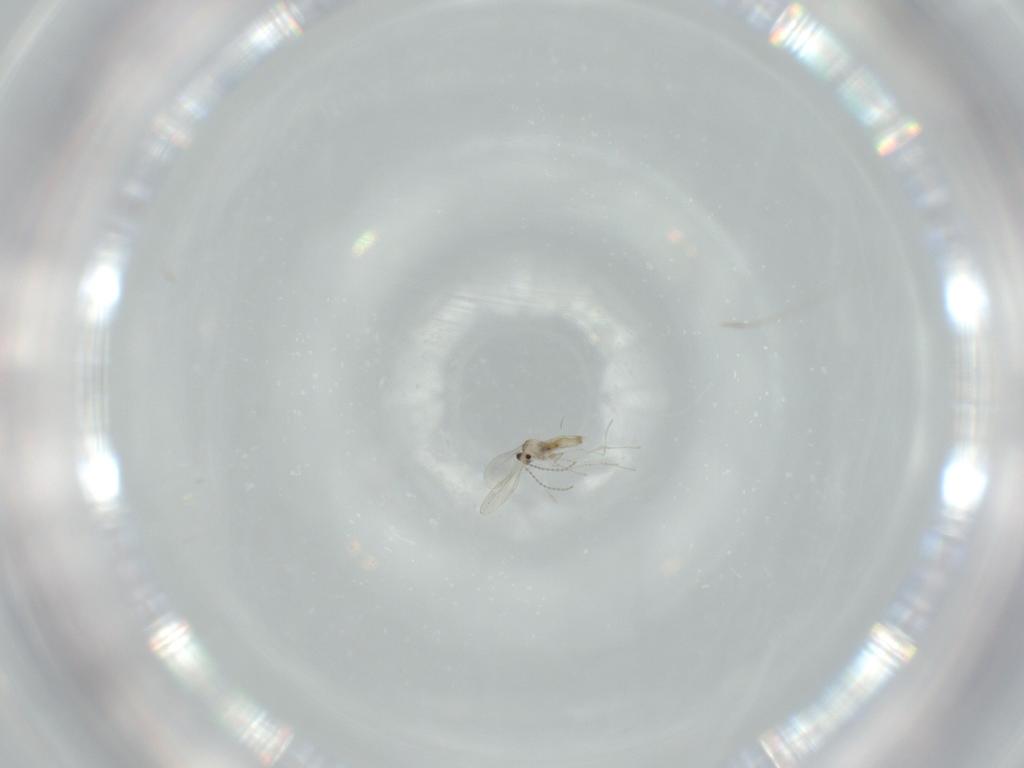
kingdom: Animalia
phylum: Arthropoda
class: Insecta
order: Diptera
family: Cecidomyiidae
